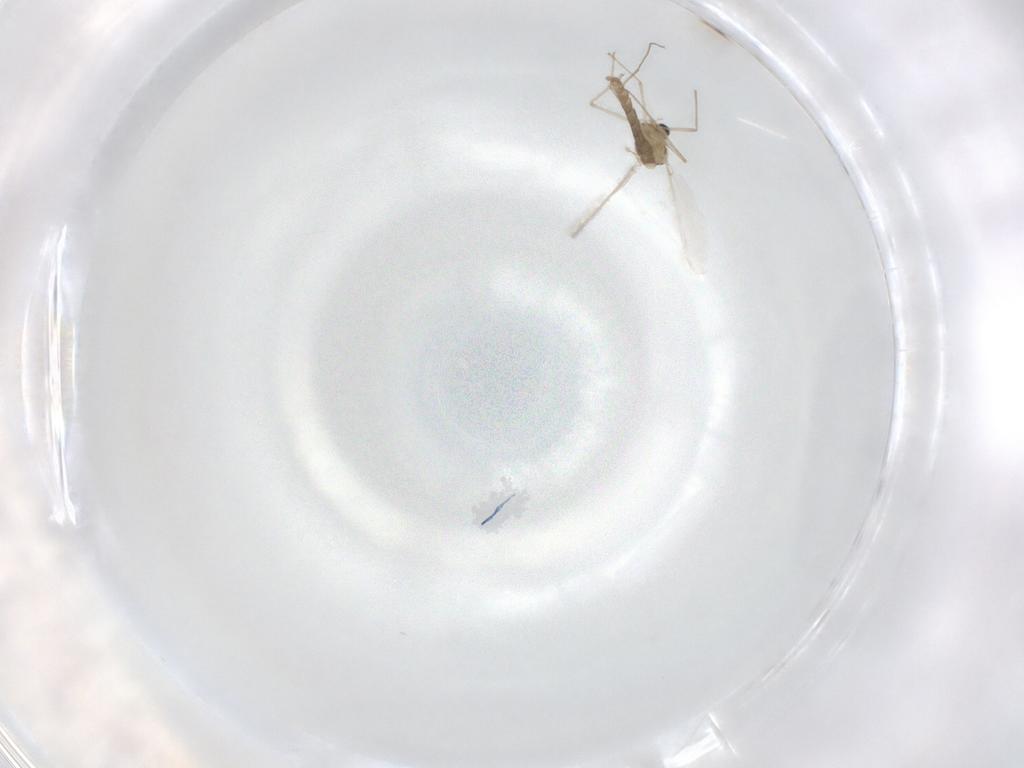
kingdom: Animalia
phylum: Arthropoda
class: Insecta
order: Diptera
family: Chironomidae
